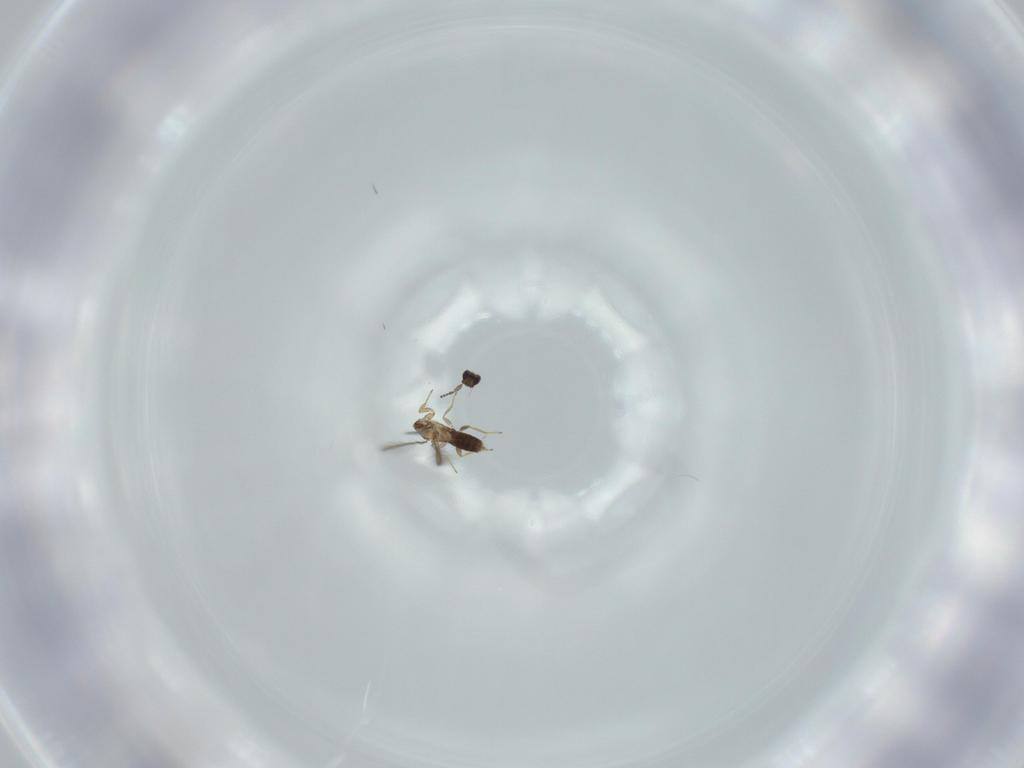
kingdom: Animalia
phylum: Arthropoda
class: Insecta
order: Hymenoptera
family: Mymaridae
